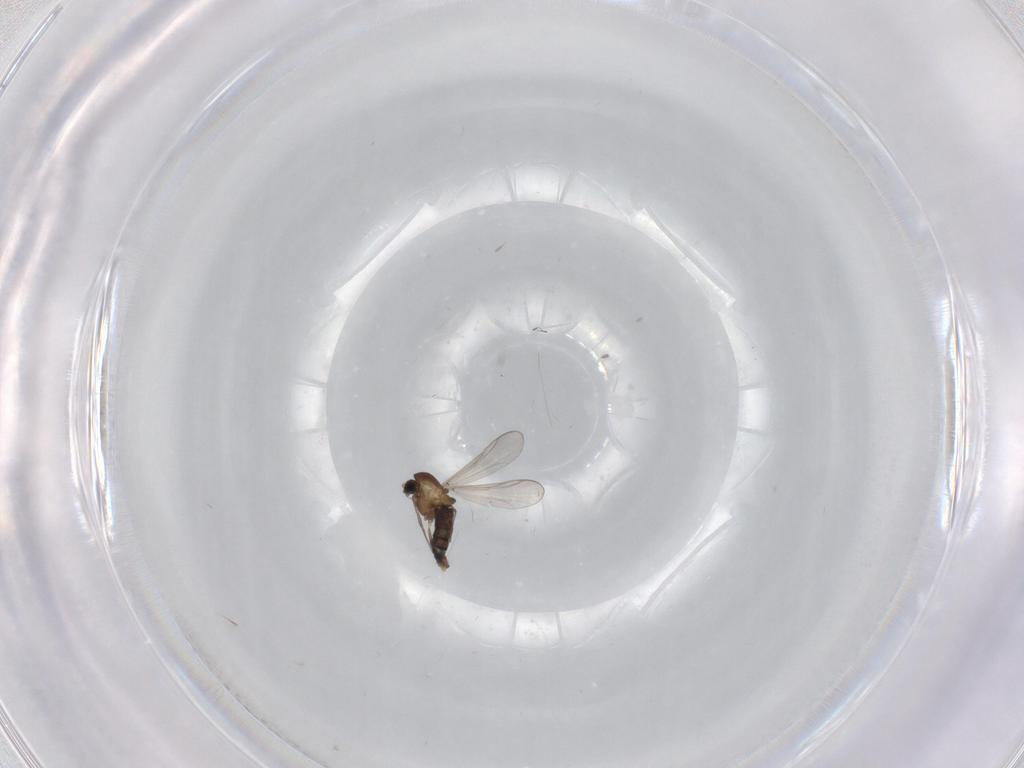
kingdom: Animalia
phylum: Arthropoda
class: Insecta
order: Diptera
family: Chironomidae
